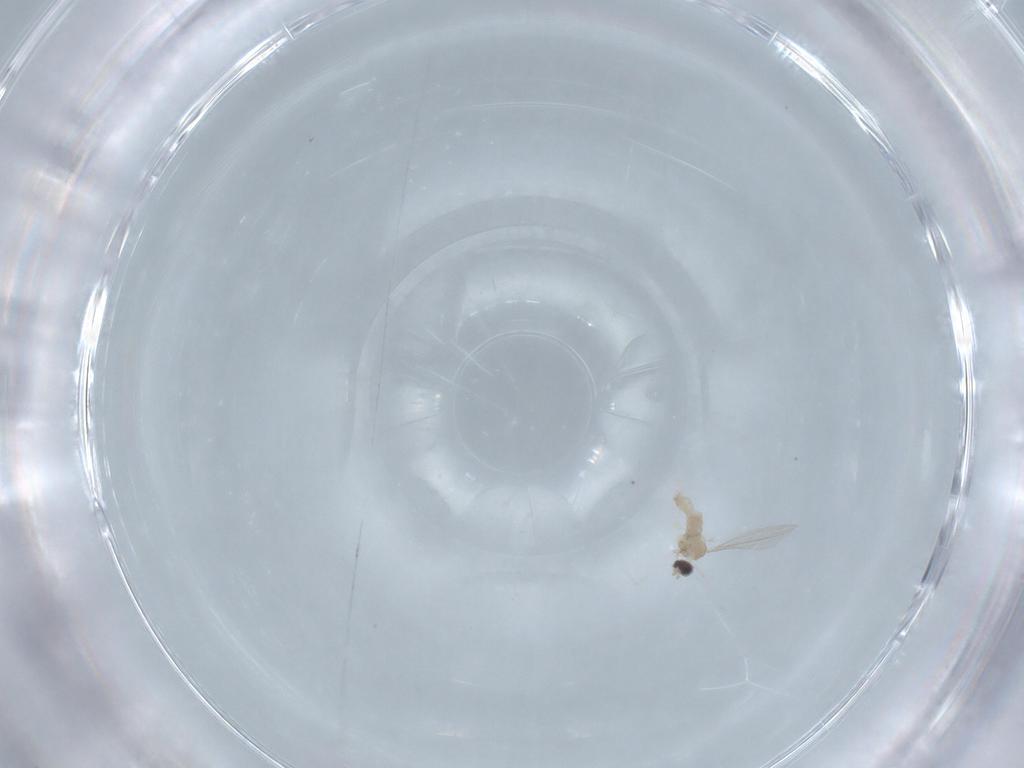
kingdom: Animalia
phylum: Arthropoda
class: Insecta
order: Diptera
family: Cecidomyiidae
